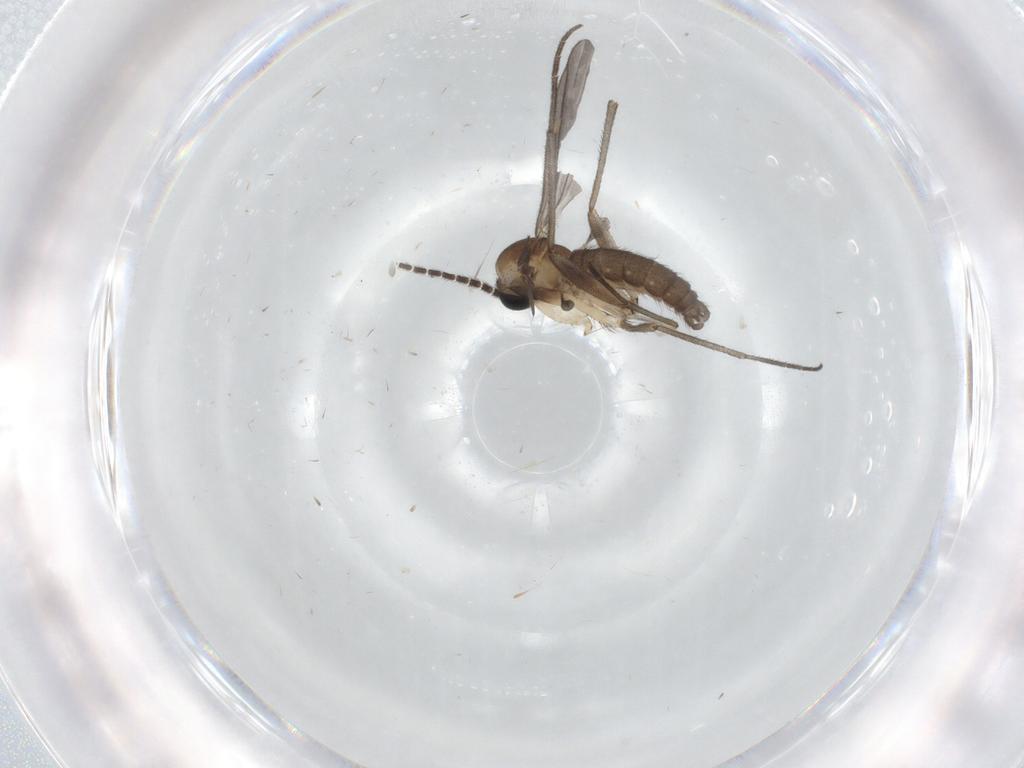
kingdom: Animalia
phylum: Arthropoda
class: Insecta
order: Diptera
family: Sciaridae
